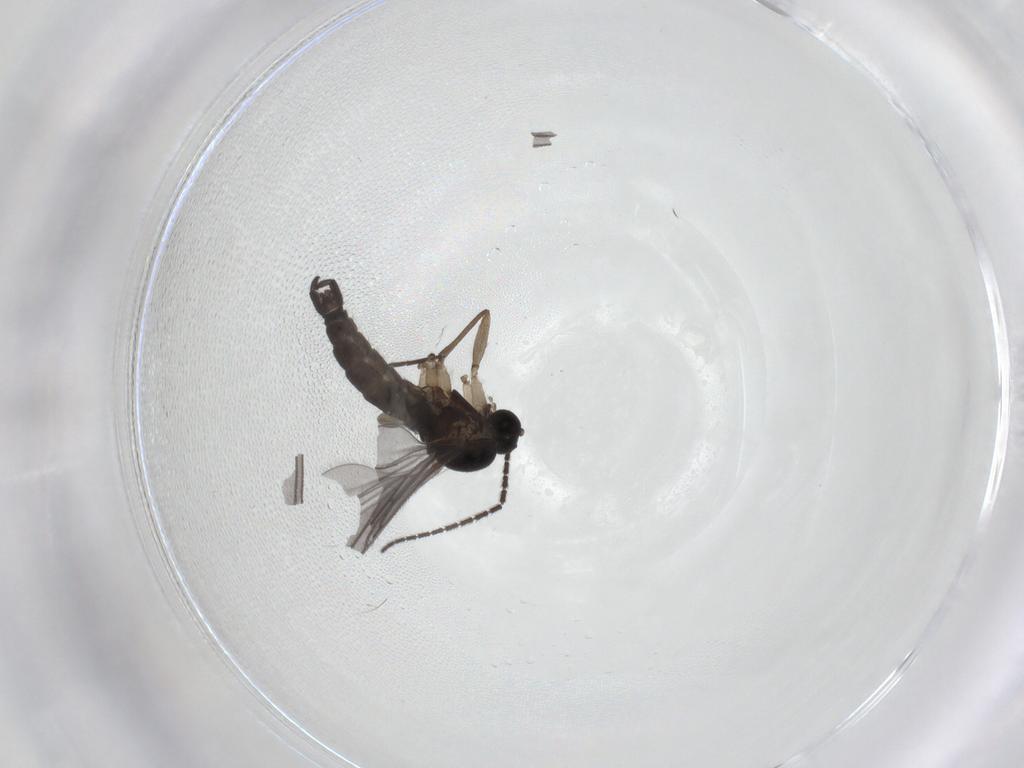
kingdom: Animalia
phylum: Arthropoda
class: Insecta
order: Diptera
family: Sciaridae
